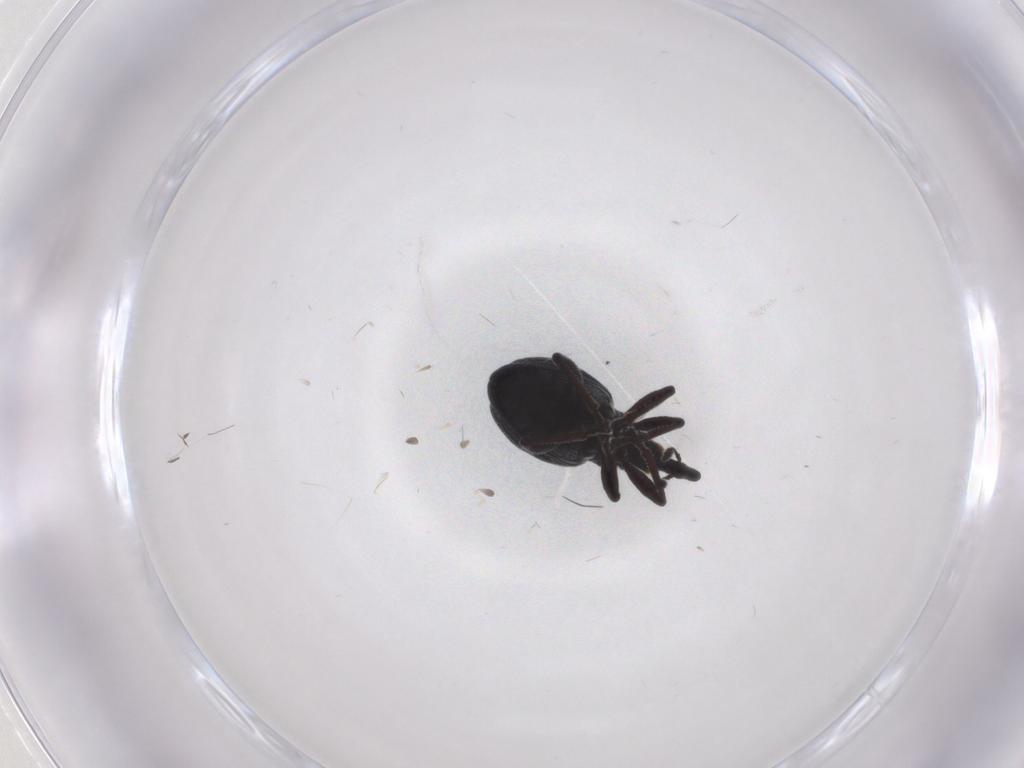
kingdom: Animalia
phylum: Arthropoda
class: Insecta
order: Coleoptera
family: Brentidae
